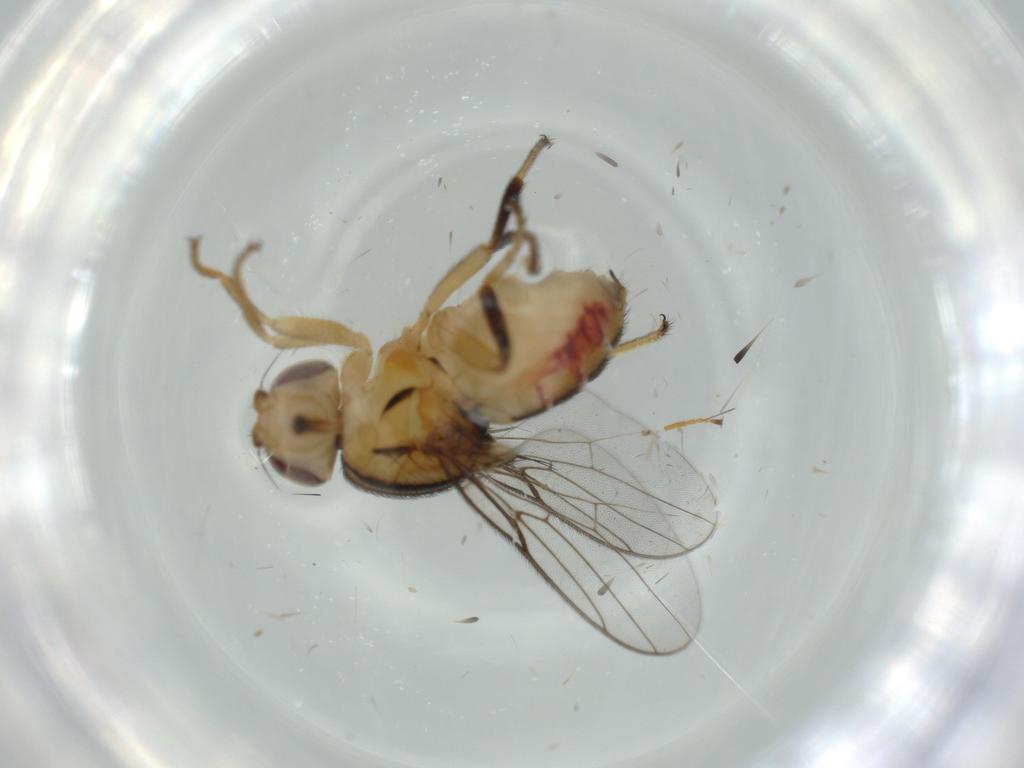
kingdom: Animalia
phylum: Arthropoda
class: Insecta
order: Diptera
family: Chloropidae
